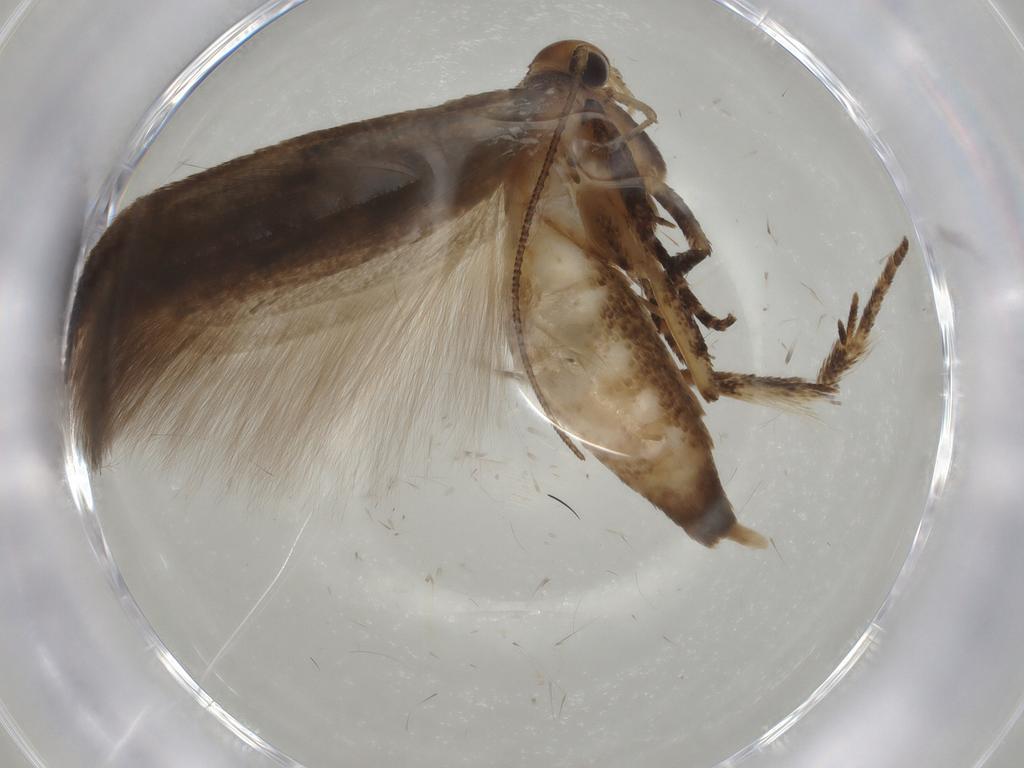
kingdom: Animalia
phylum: Arthropoda
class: Insecta
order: Lepidoptera
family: Gelechiidae
